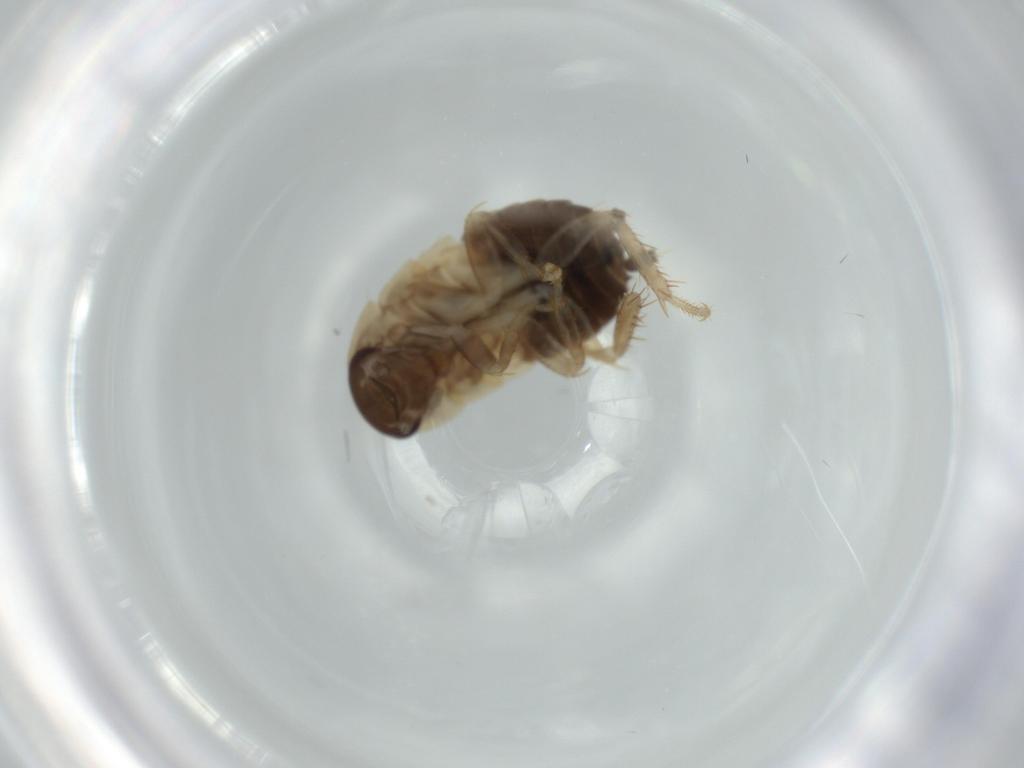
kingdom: Animalia
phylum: Arthropoda
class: Insecta
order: Blattodea
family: Ectobiidae
